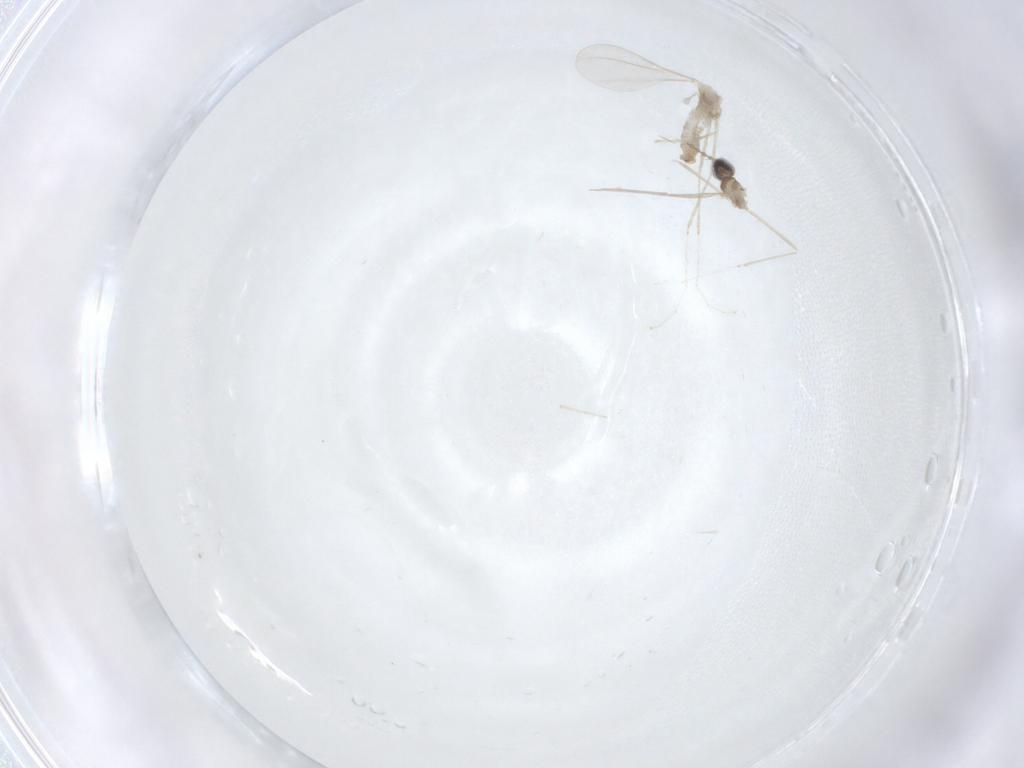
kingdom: Animalia
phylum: Arthropoda
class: Insecta
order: Diptera
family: Cecidomyiidae
